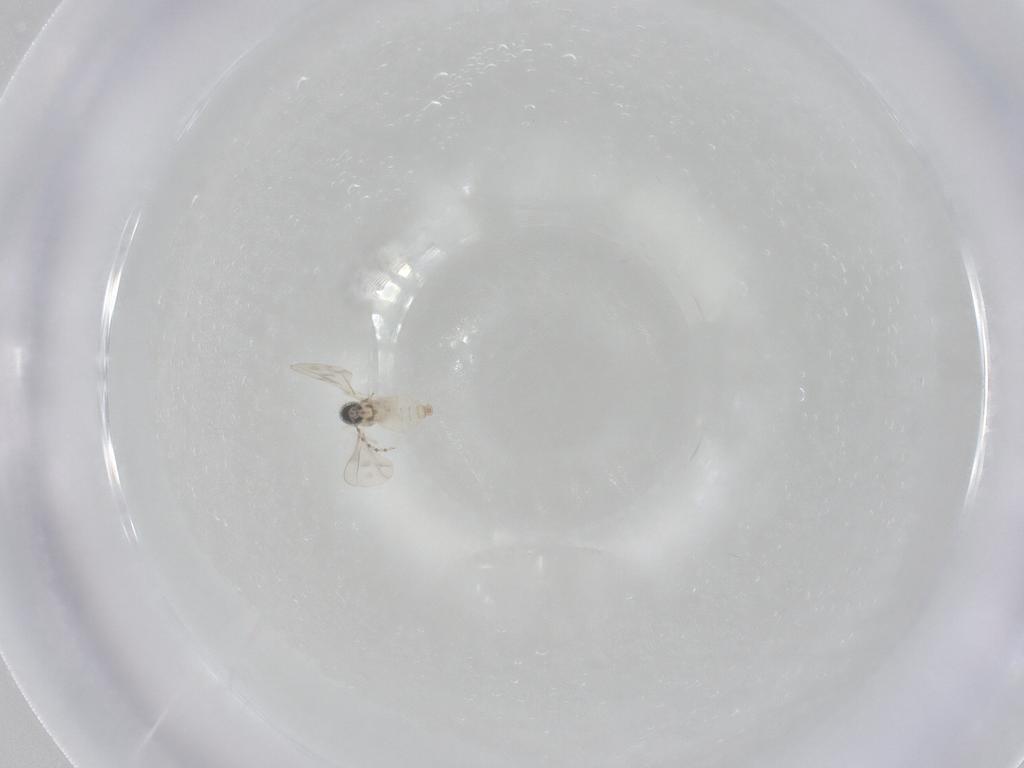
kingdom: Animalia
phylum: Arthropoda
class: Insecta
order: Diptera
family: Cecidomyiidae
